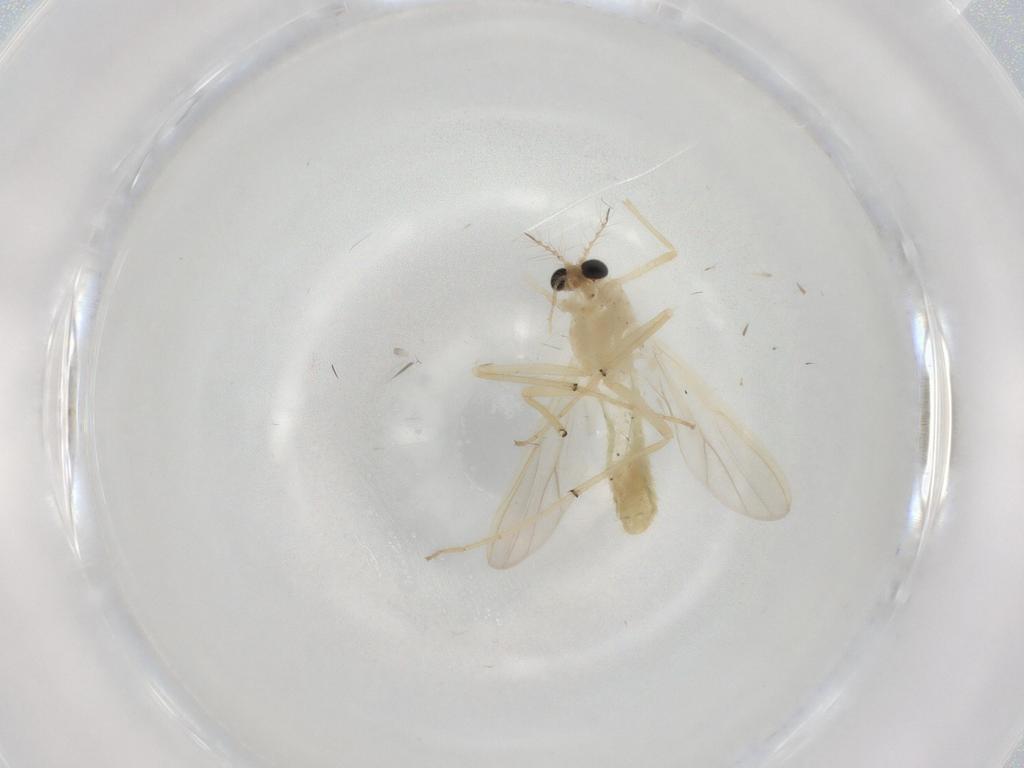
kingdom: Animalia
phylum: Arthropoda
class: Insecta
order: Diptera
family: Chironomidae
